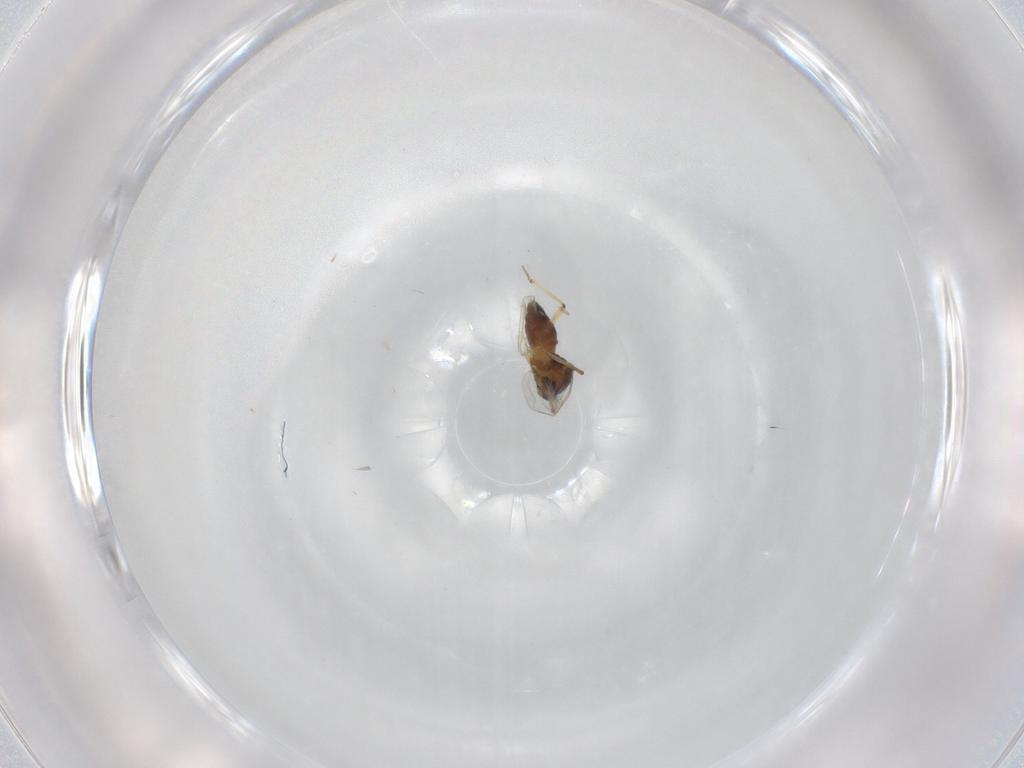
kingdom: Animalia
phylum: Arthropoda
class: Insecta
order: Diptera
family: Ceratopogonidae
